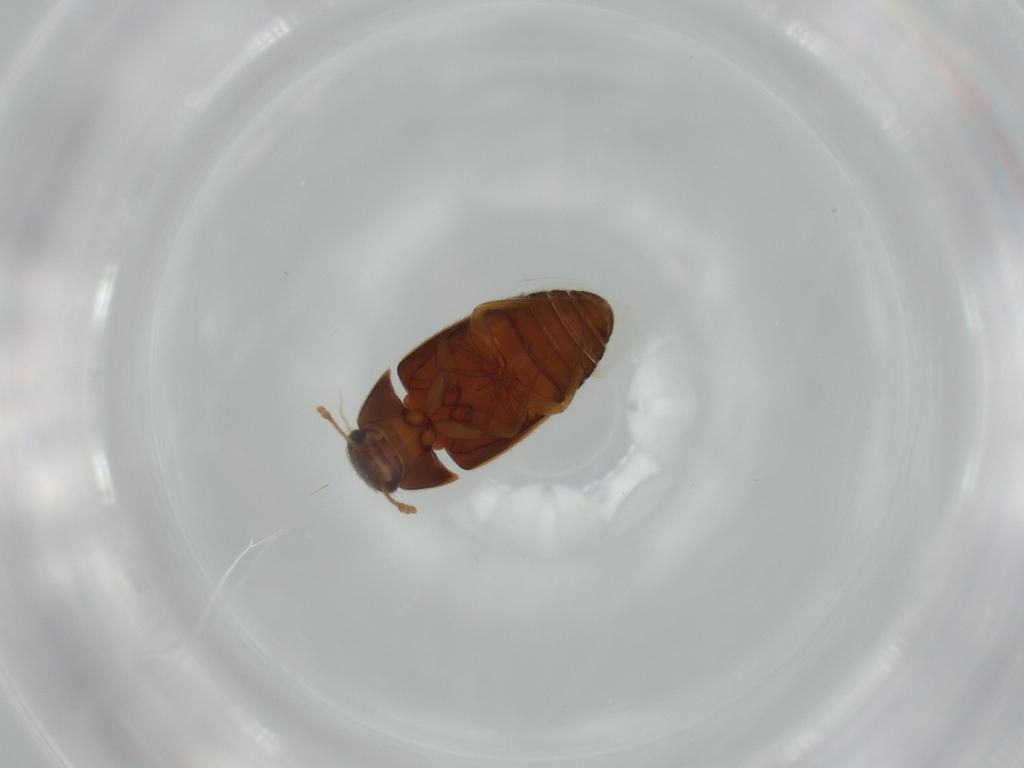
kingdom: Animalia
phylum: Arthropoda
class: Insecta
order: Coleoptera
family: Mycetophagidae
